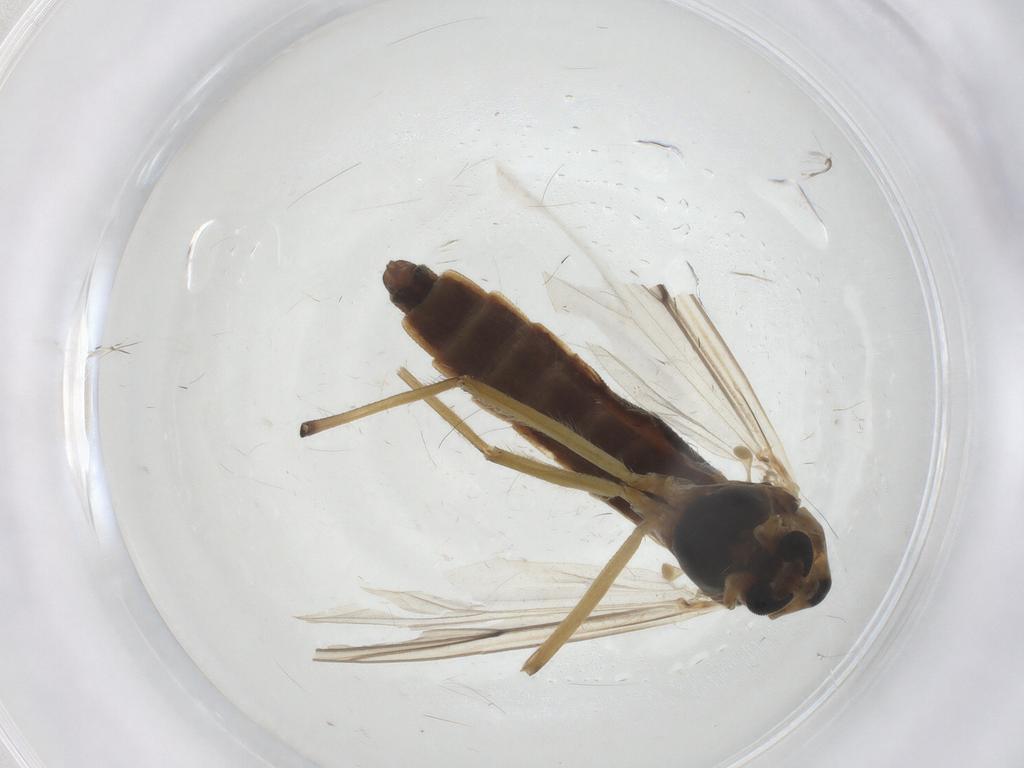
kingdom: Animalia
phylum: Arthropoda
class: Insecta
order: Diptera
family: Chironomidae
